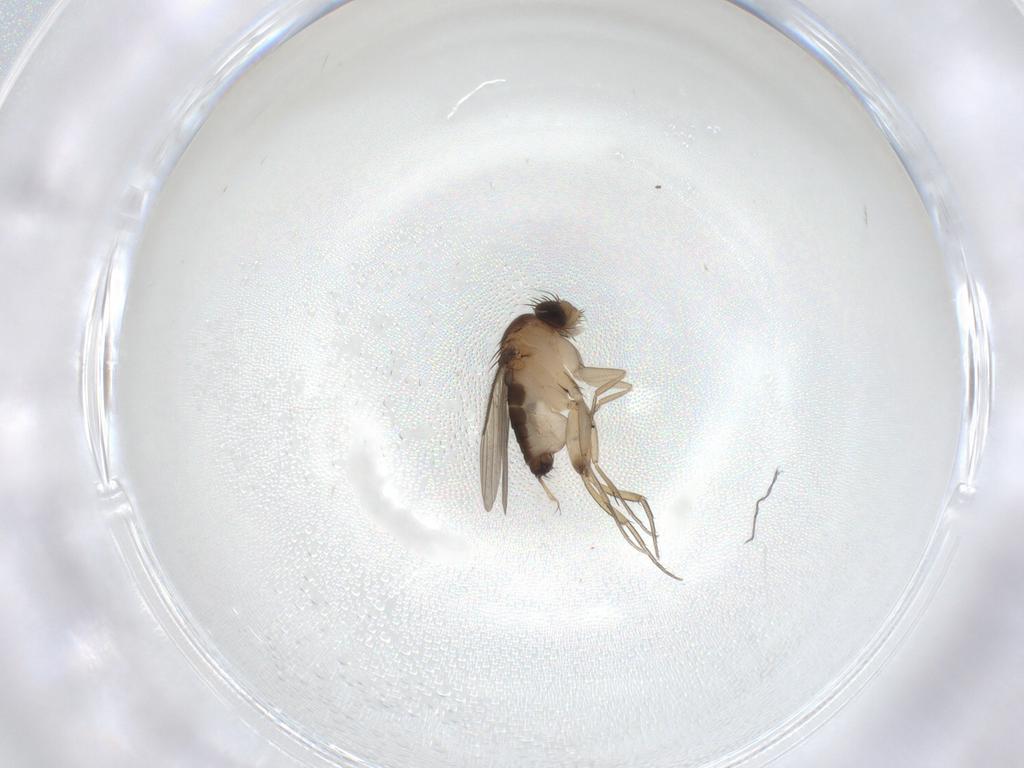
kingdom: Animalia
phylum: Arthropoda
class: Insecta
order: Diptera
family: Phoridae
